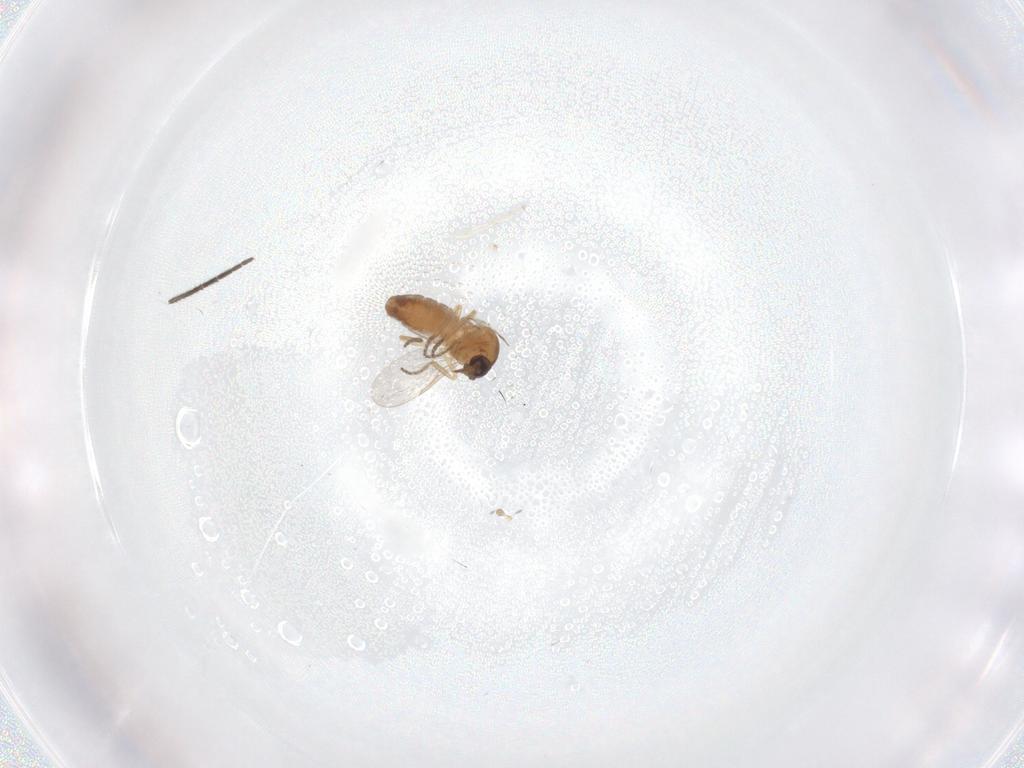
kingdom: Animalia
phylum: Arthropoda
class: Insecta
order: Diptera
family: Ceratopogonidae
